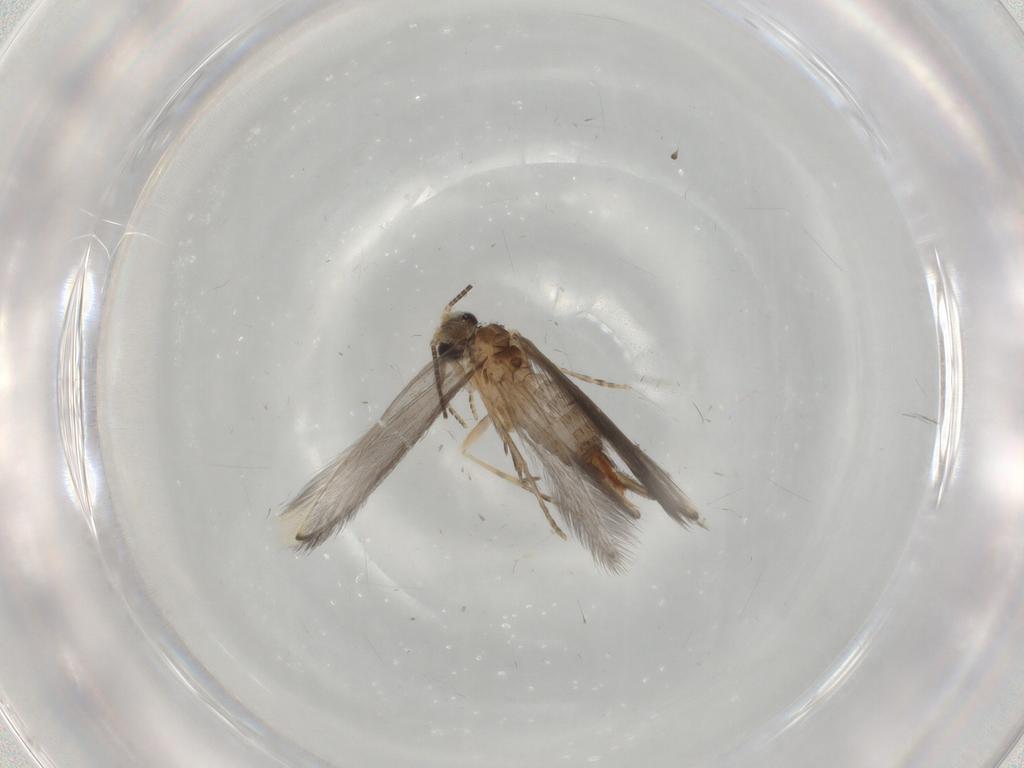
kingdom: Animalia
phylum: Arthropoda
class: Insecta
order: Trichoptera
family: Hydroptilidae
